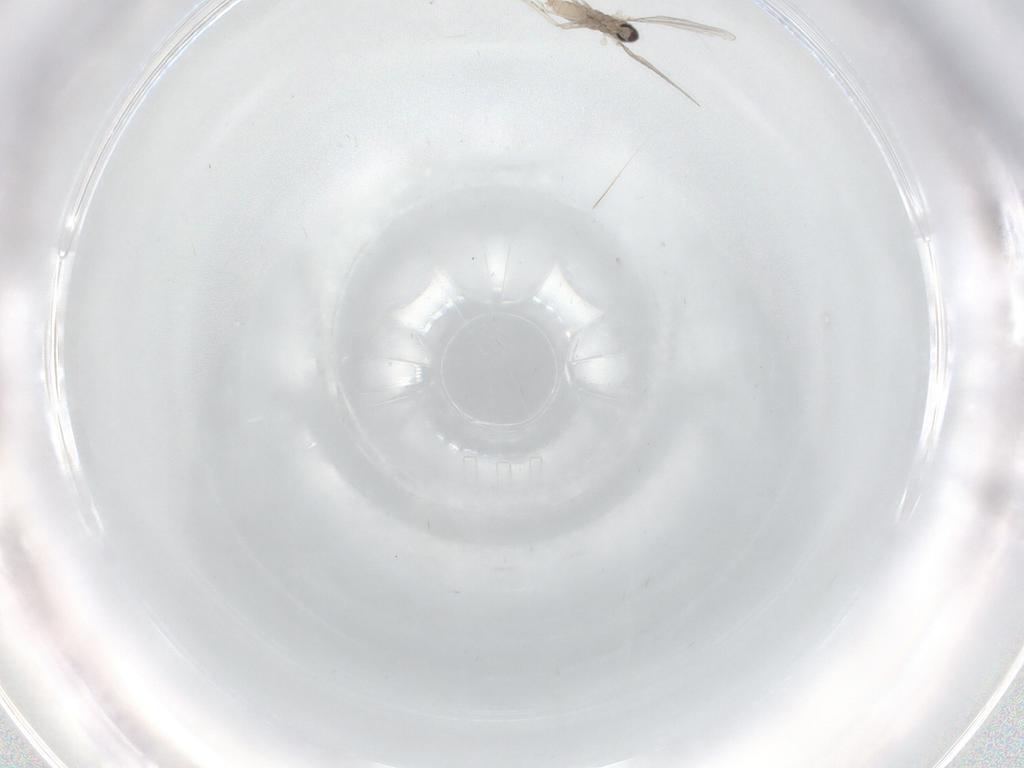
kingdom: Animalia
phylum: Arthropoda
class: Insecta
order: Diptera
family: Cecidomyiidae
